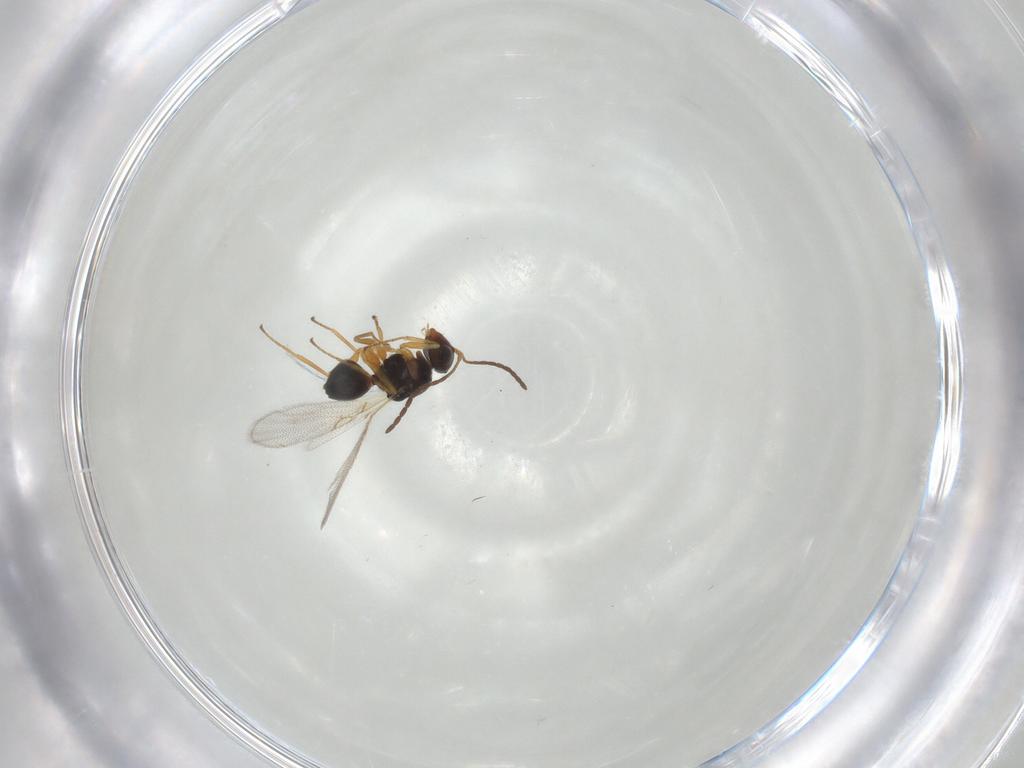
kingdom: Animalia
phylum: Arthropoda
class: Insecta
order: Hymenoptera
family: Figitidae
